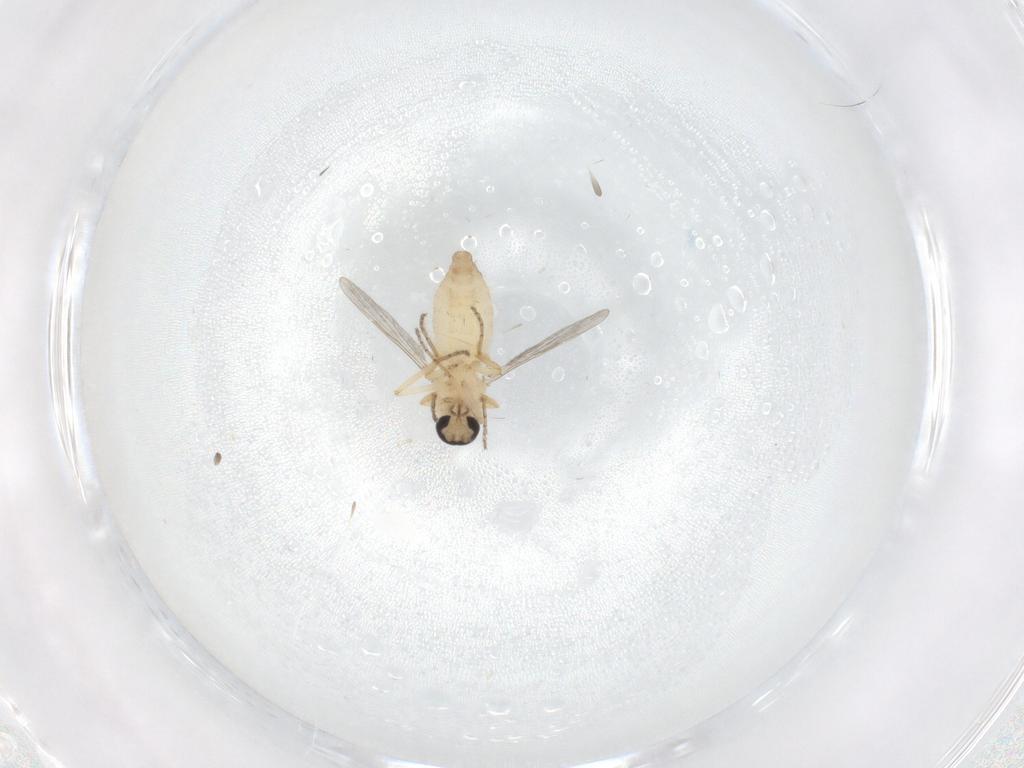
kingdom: Animalia
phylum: Arthropoda
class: Insecta
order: Diptera
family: Ceratopogonidae
